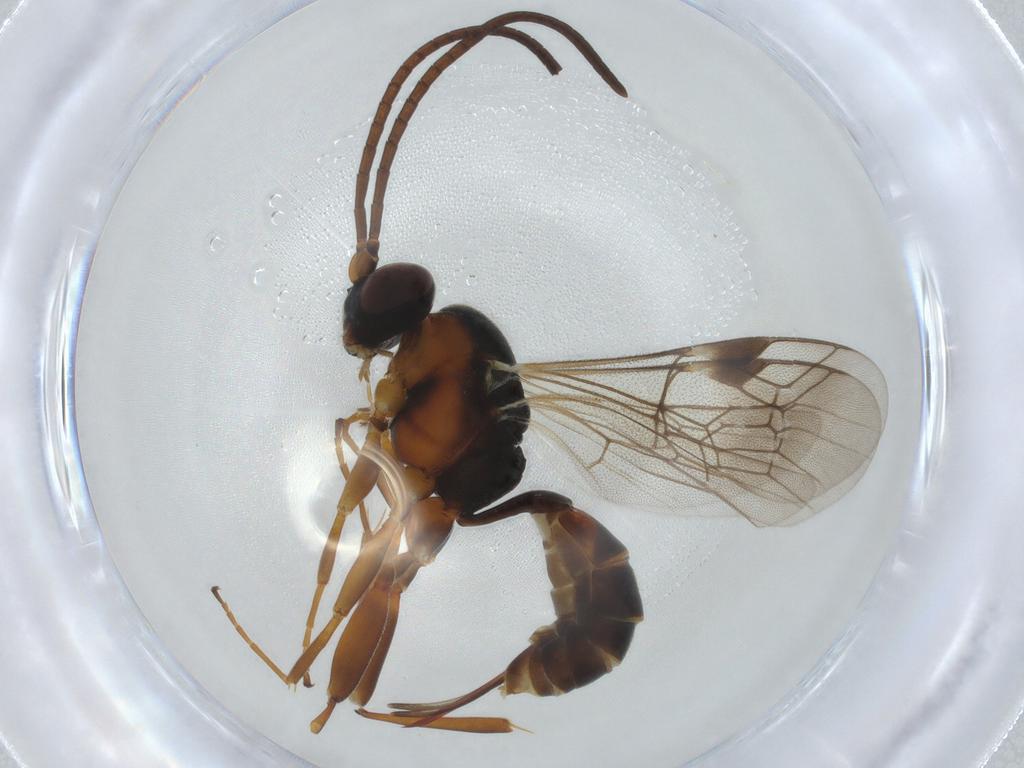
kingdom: Animalia
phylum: Arthropoda
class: Insecta
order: Hymenoptera
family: Ichneumonidae
